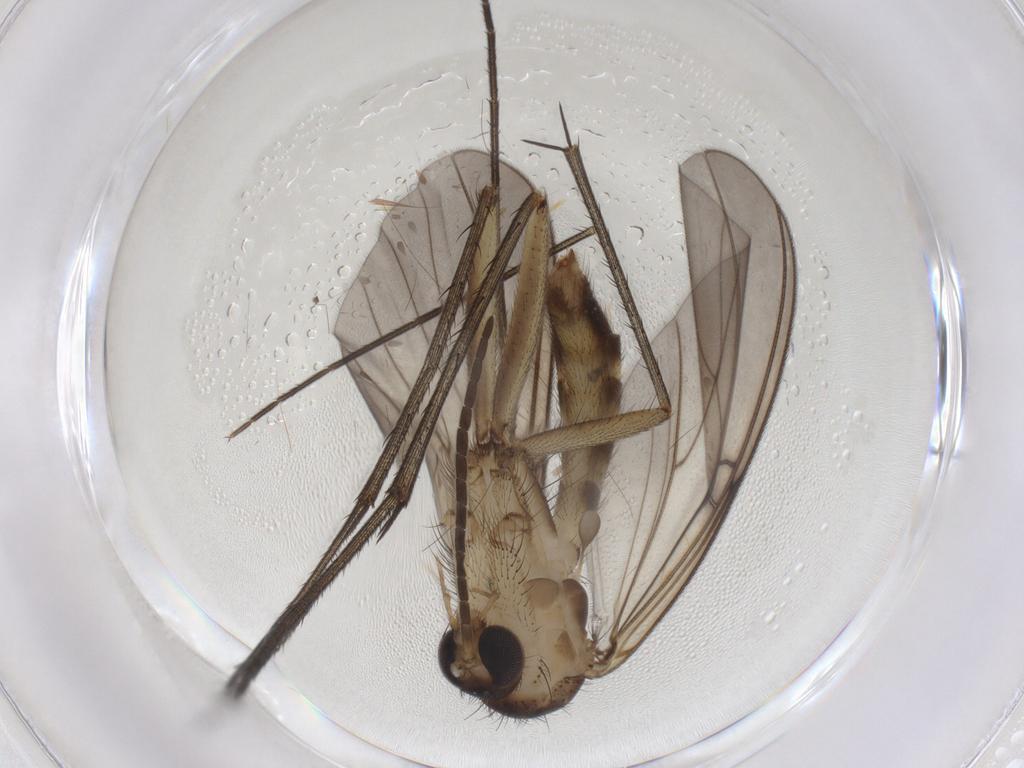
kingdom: Animalia
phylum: Arthropoda
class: Insecta
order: Diptera
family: Mycetophilidae
